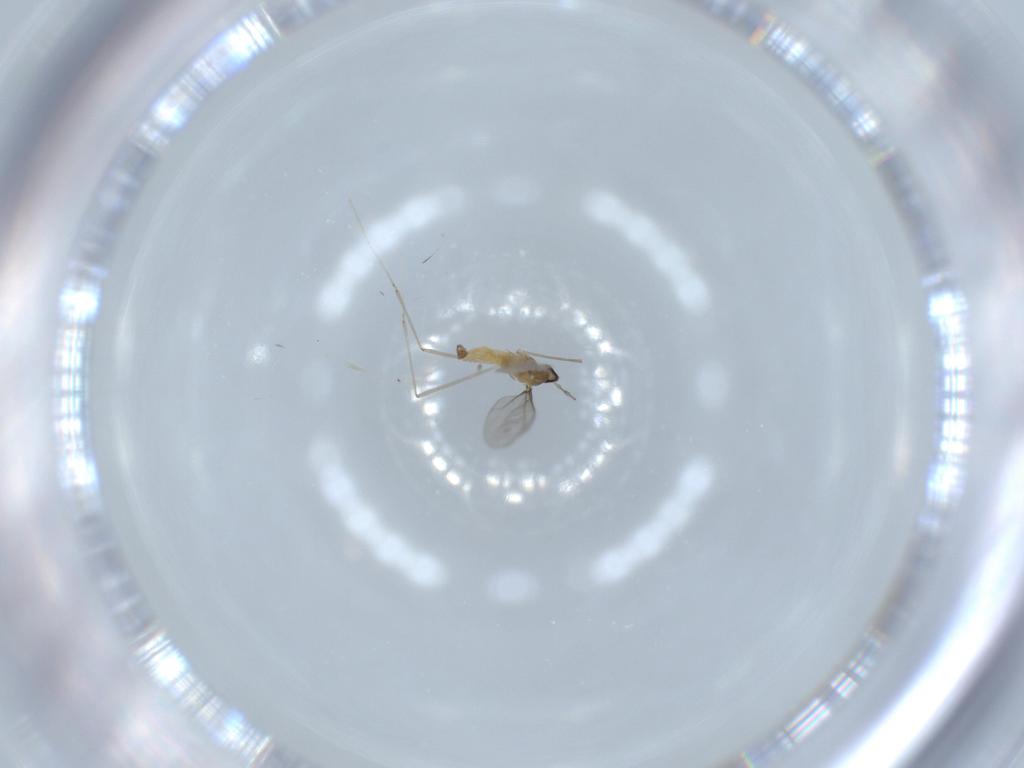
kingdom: Animalia
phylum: Arthropoda
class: Insecta
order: Diptera
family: Cecidomyiidae
